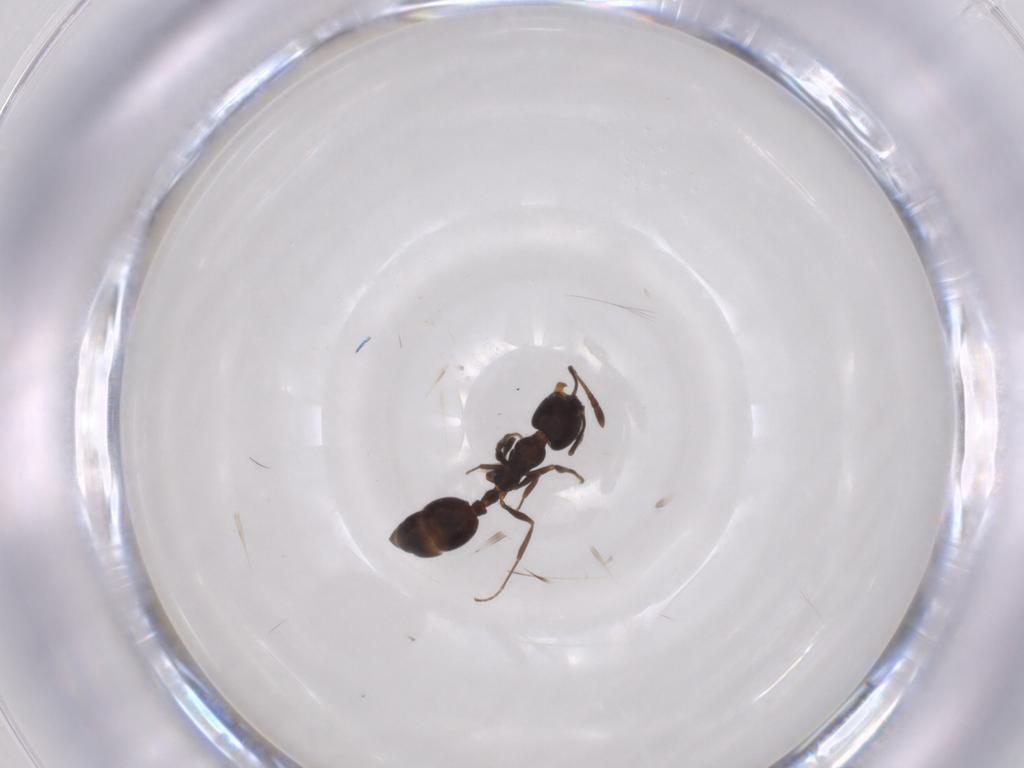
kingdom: Animalia
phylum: Arthropoda
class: Insecta
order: Hymenoptera
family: Formicidae
